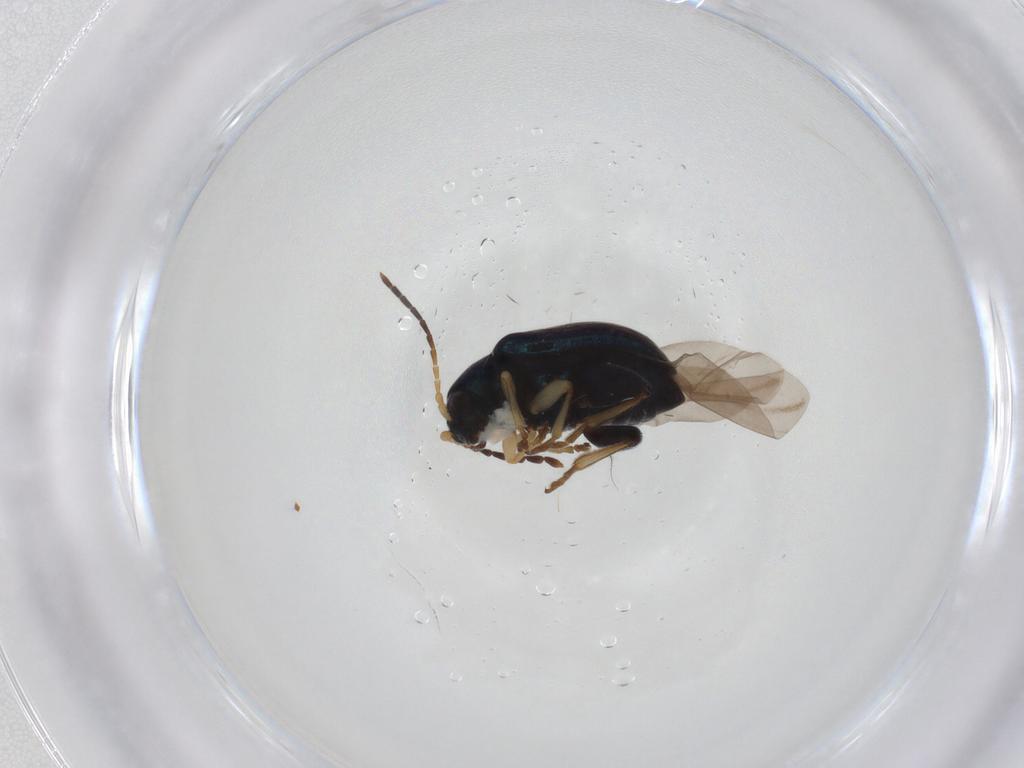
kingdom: Animalia
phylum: Arthropoda
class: Insecta
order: Coleoptera
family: Chrysomelidae
